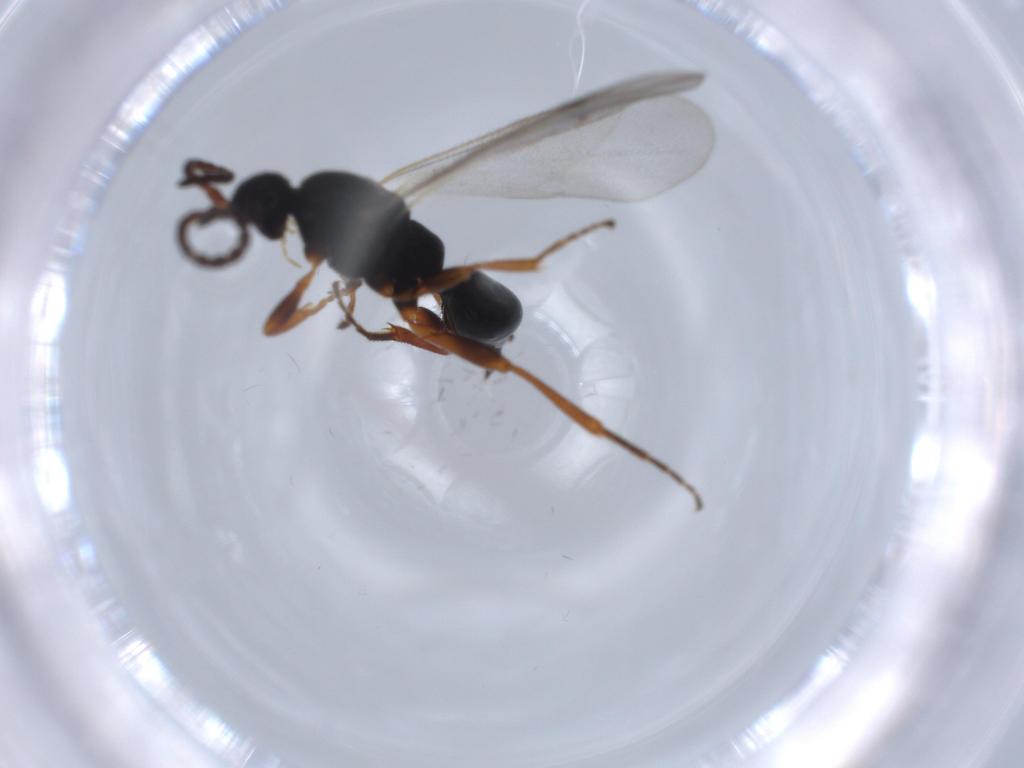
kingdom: Animalia
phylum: Arthropoda
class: Insecta
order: Hymenoptera
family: Proctotrupidae
